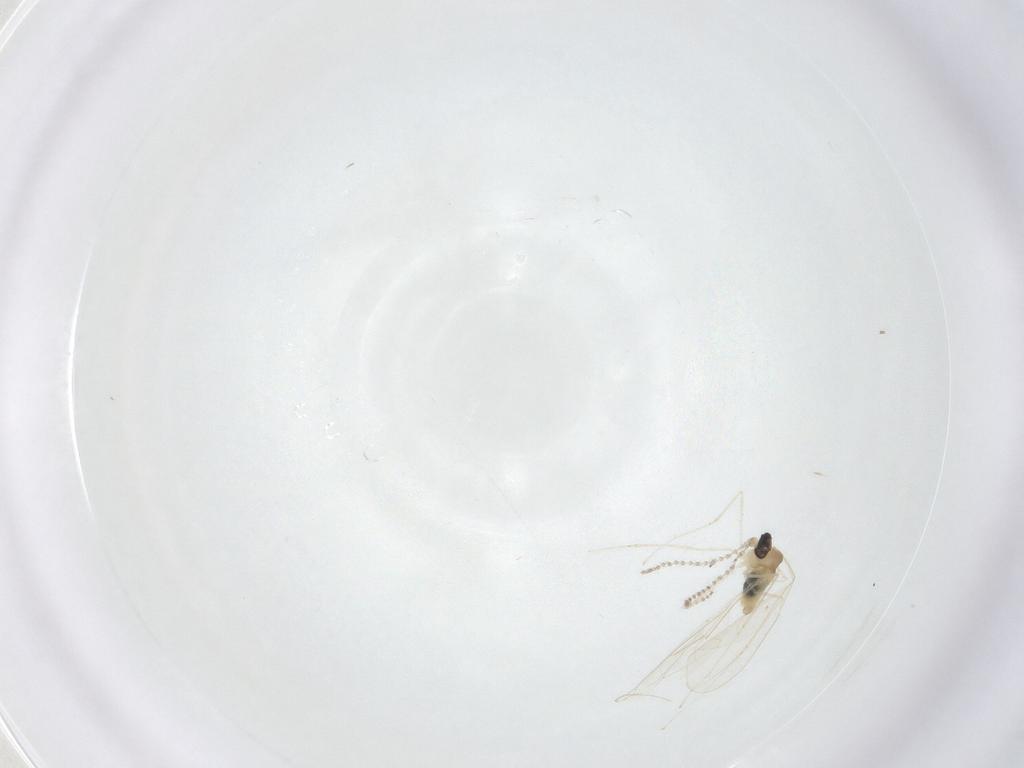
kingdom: Animalia
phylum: Arthropoda
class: Insecta
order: Diptera
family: Cecidomyiidae
